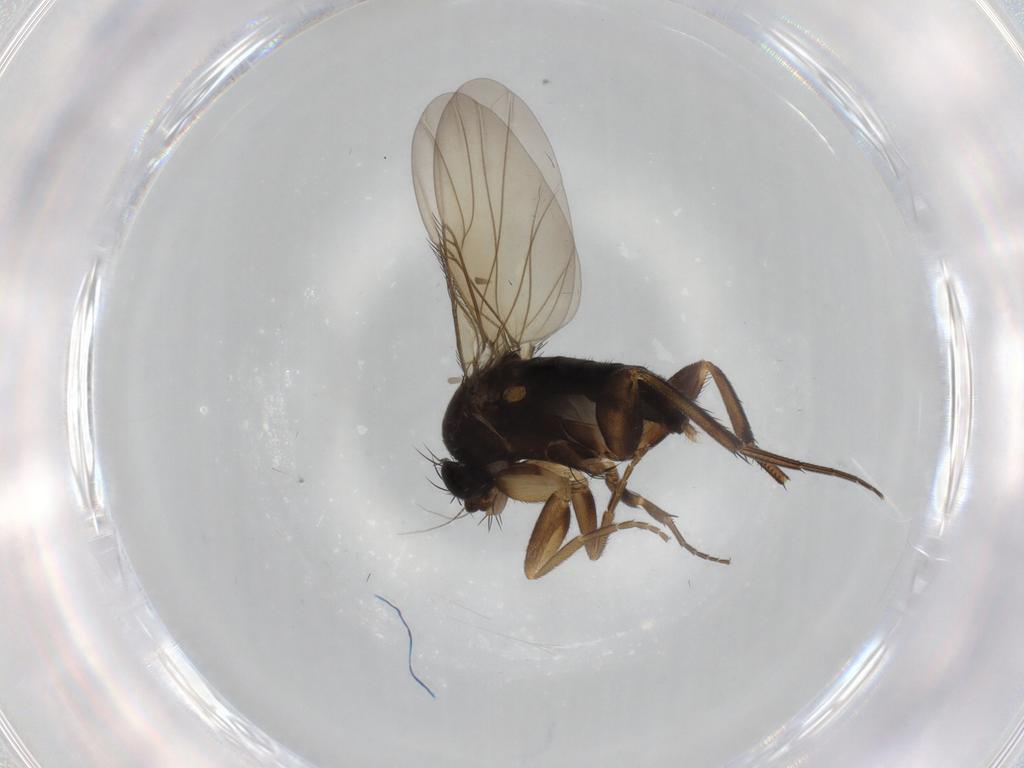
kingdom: Animalia
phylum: Arthropoda
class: Insecta
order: Diptera
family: Phoridae
